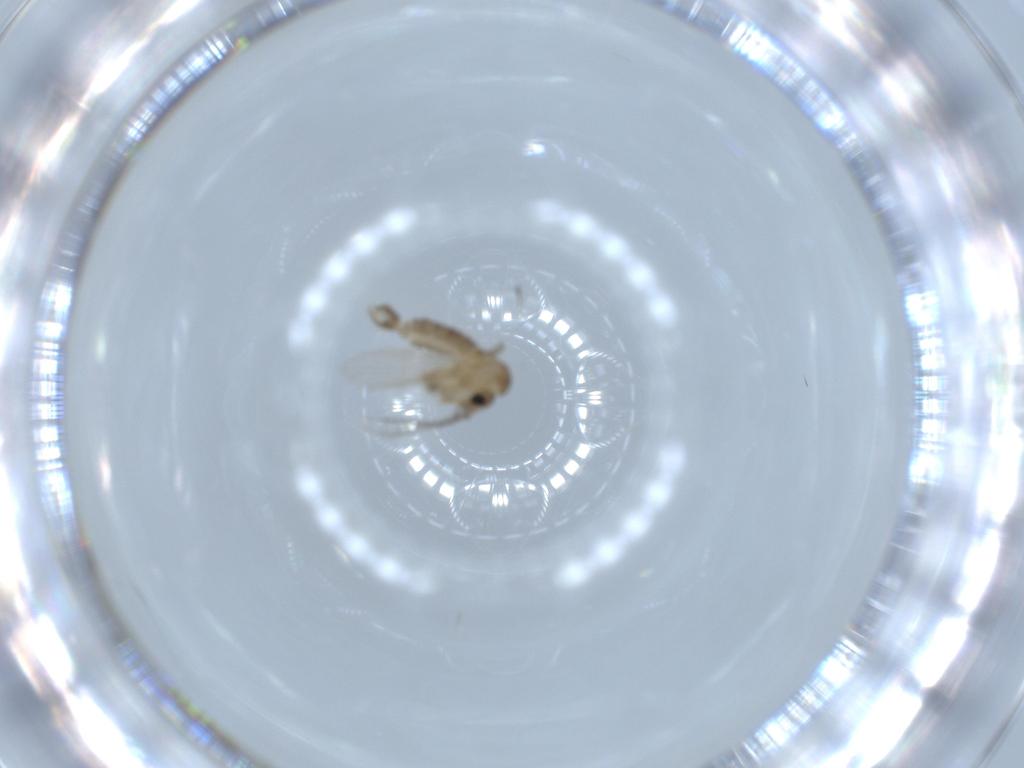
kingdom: Animalia
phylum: Arthropoda
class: Insecta
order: Diptera
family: Psychodidae
